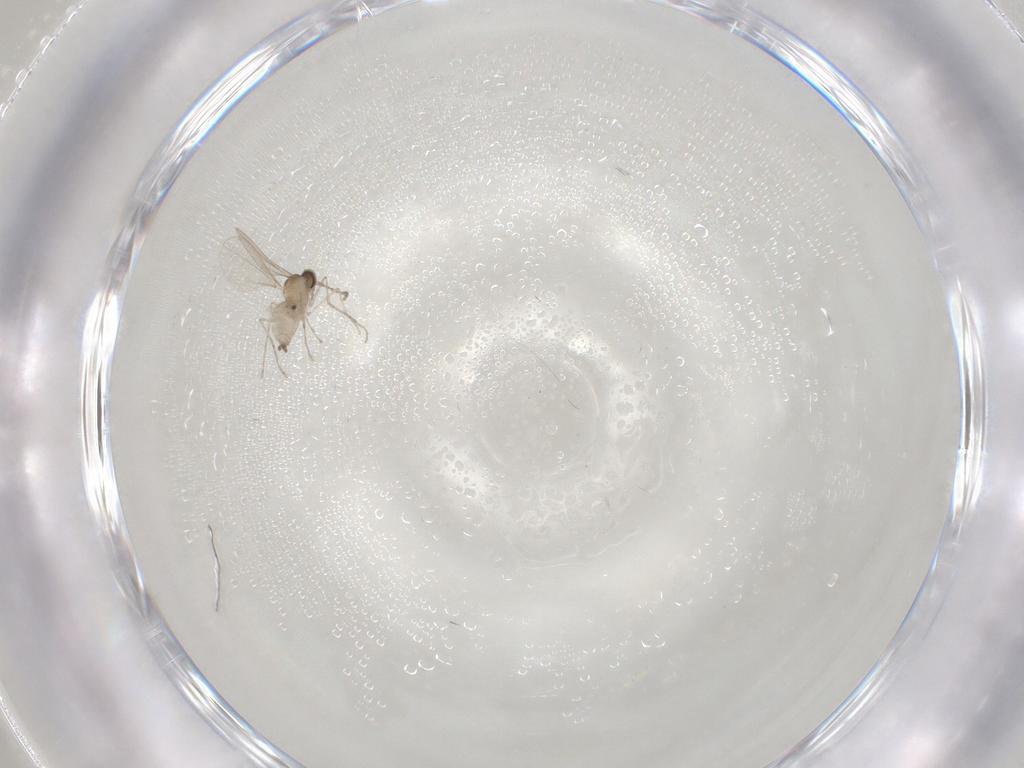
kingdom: Animalia
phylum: Arthropoda
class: Insecta
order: Diptera
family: Cecidomyiidae
